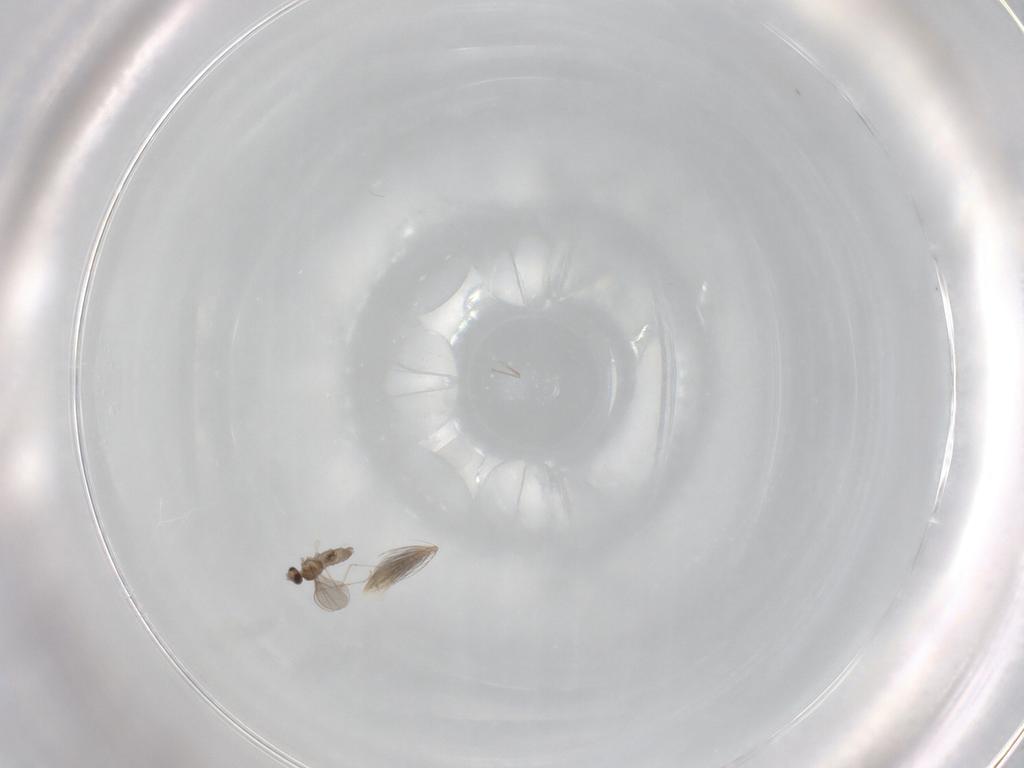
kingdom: Animalia
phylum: Arthropoda
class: Insecta
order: Diptera
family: Cecidomyiidae
